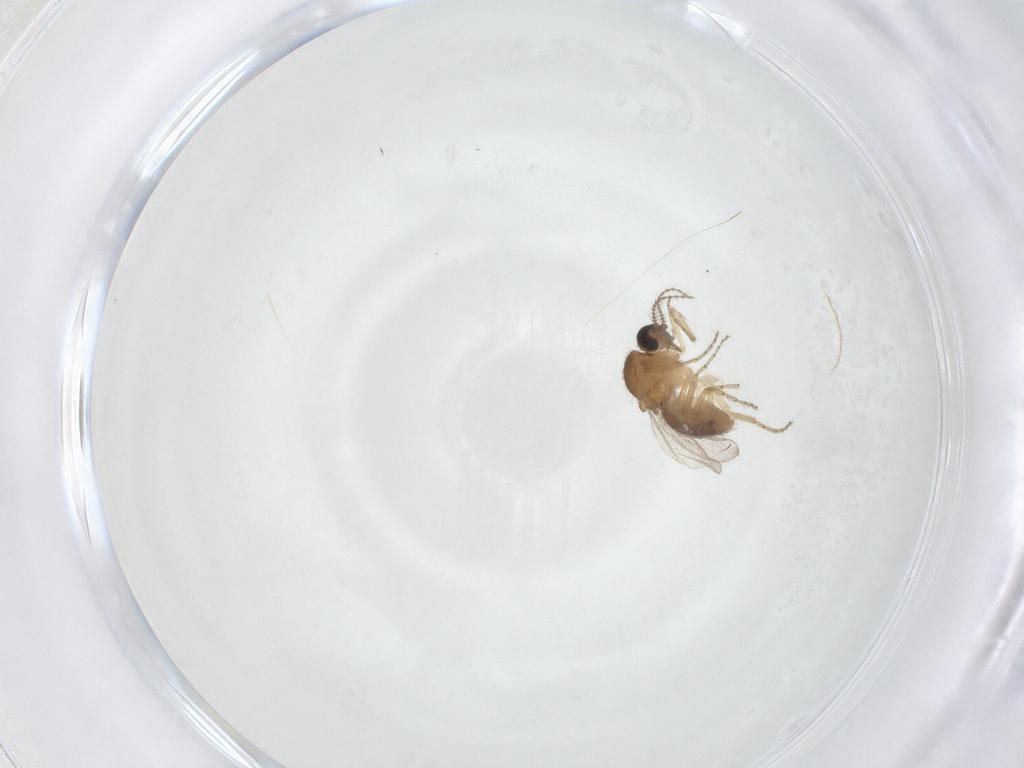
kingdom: Animalia
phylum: Arthropoda
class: Insecta
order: Diptera
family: Ceratopogonidae
